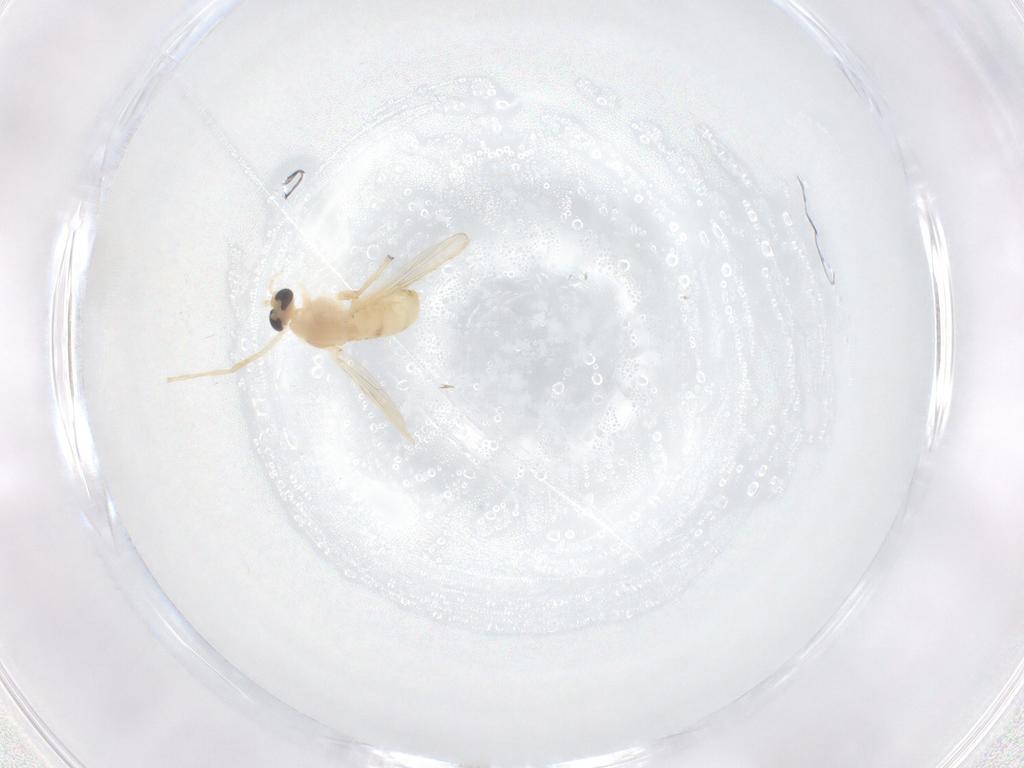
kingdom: Animalia
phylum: Arthropoda
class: Insecta
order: Diptera
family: Chironomidae
